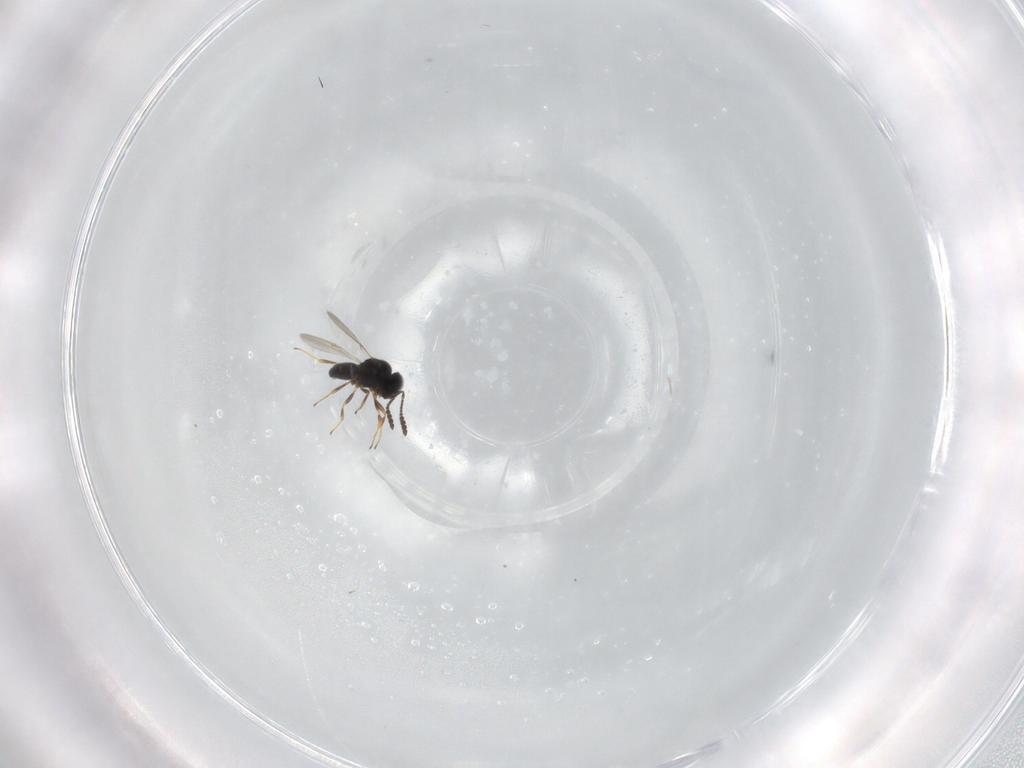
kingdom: Animalia
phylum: Arthropoda
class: Insecta
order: Hymenoptera
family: Scelionidae
